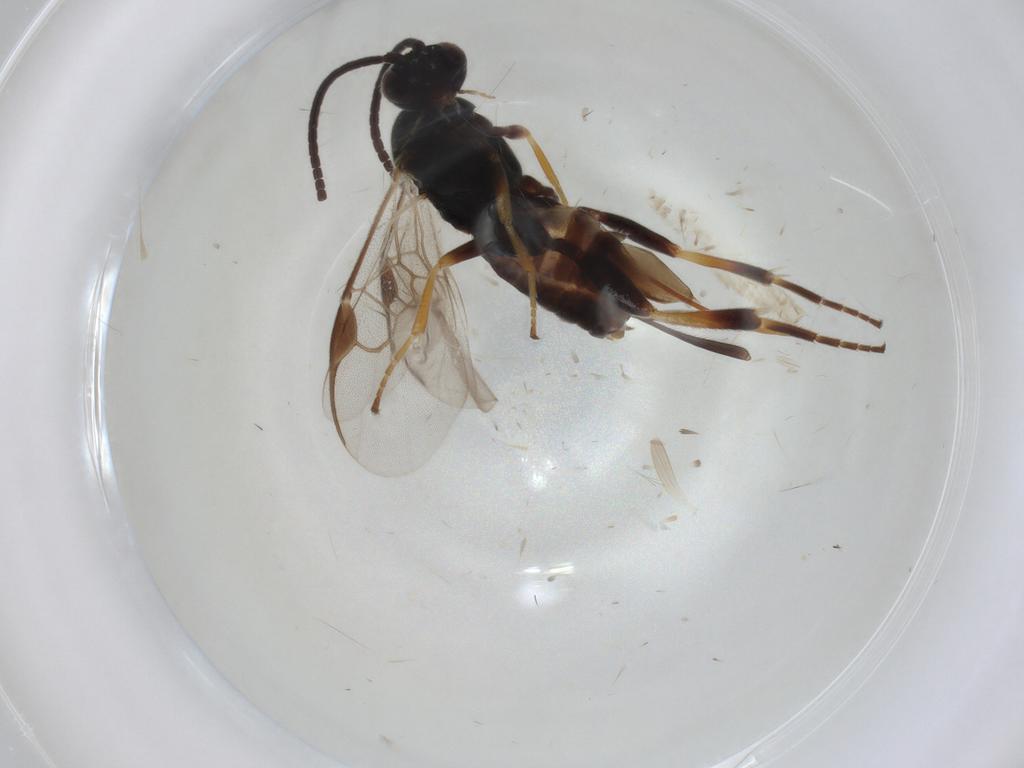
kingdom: Animalia
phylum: Arthropoda
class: Insecta
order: Hymenoptera
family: Braconidae
